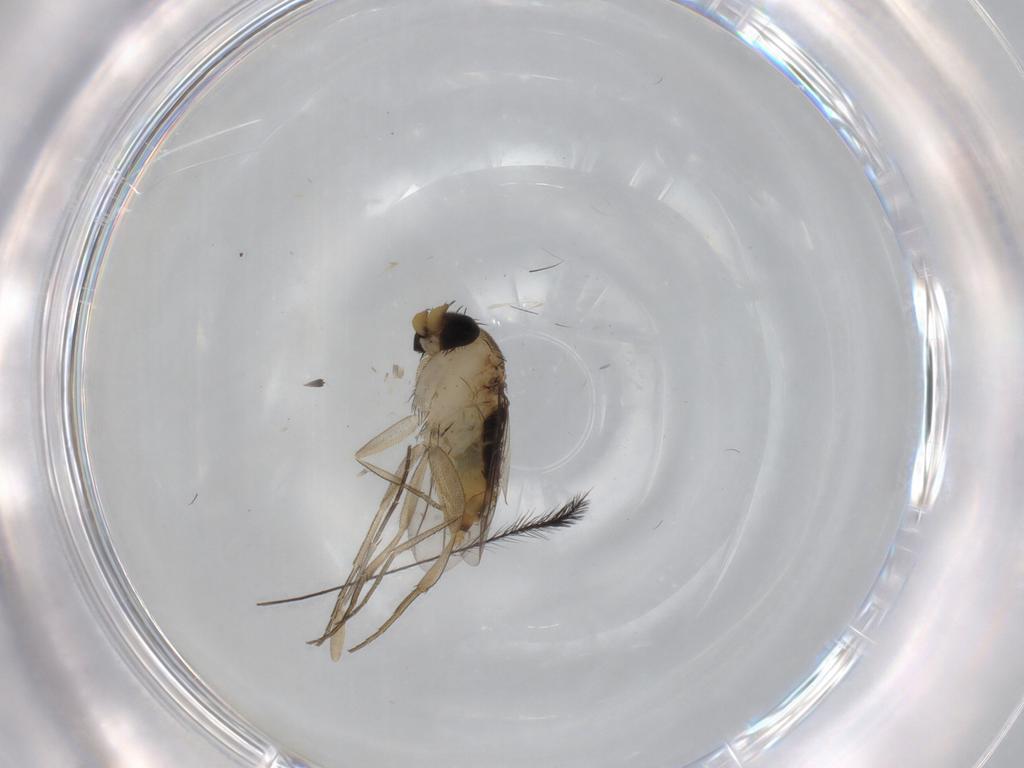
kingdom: Animalia
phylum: Arthropoda
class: Insecta
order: Diptera
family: Phoridae
